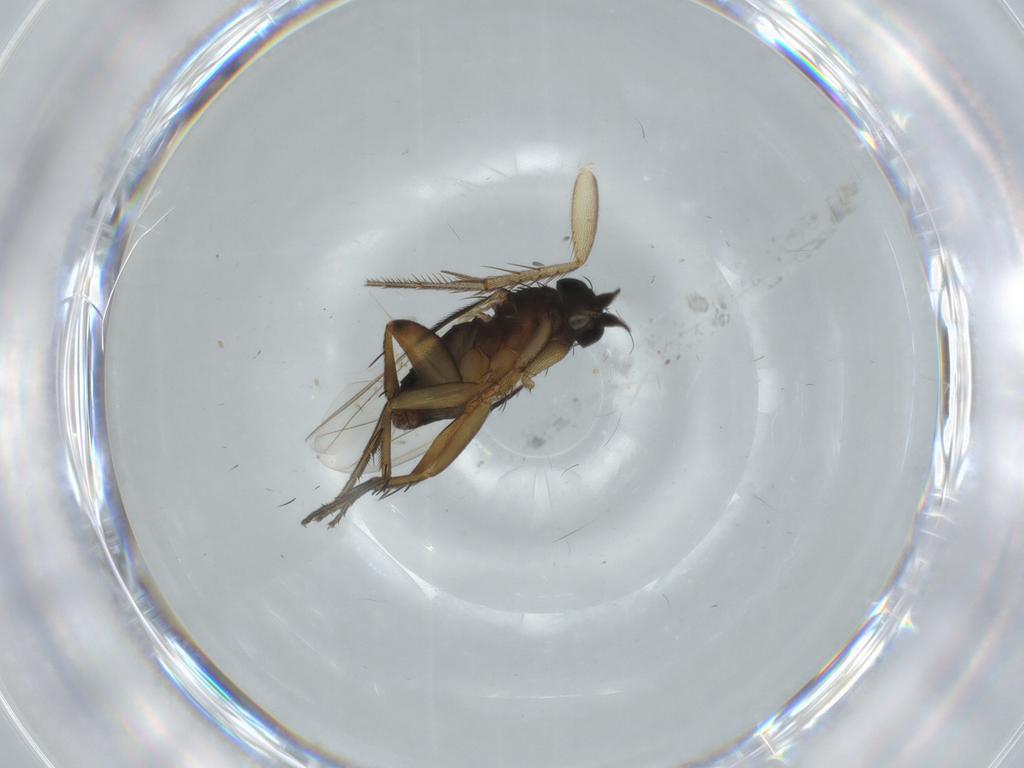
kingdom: Animalia
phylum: Arthropoda
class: Insecta
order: Diptera
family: Phoridae
